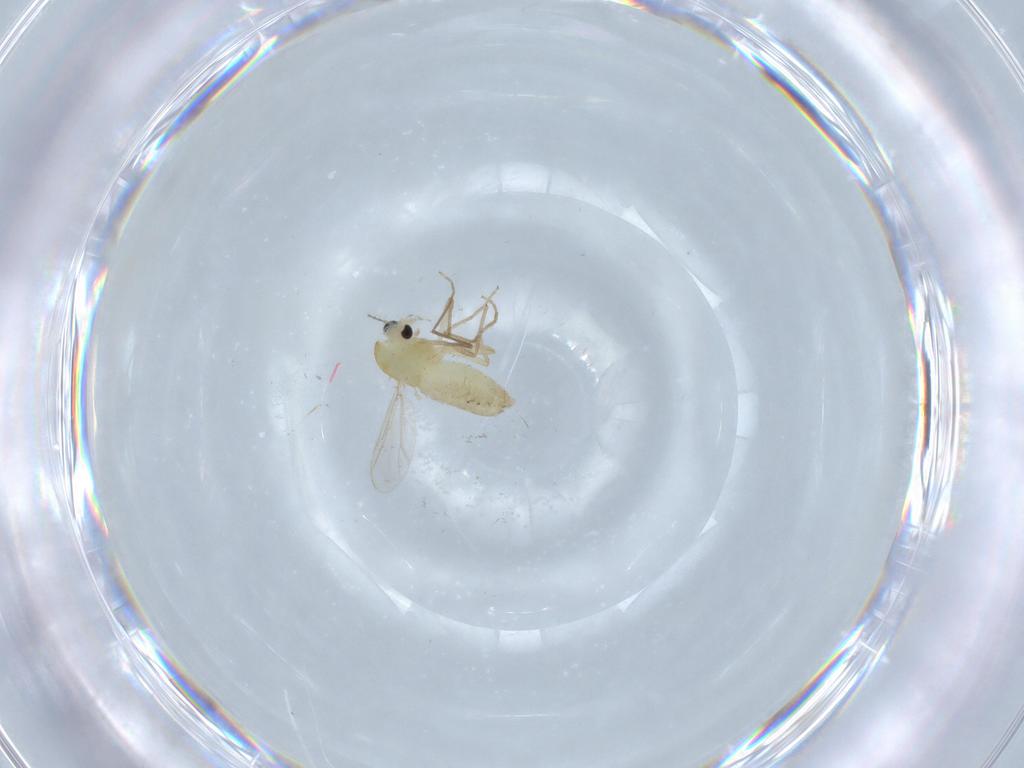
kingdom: Animalia
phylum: Arthropoda
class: Insecta
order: Diptera
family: Chironomidae
